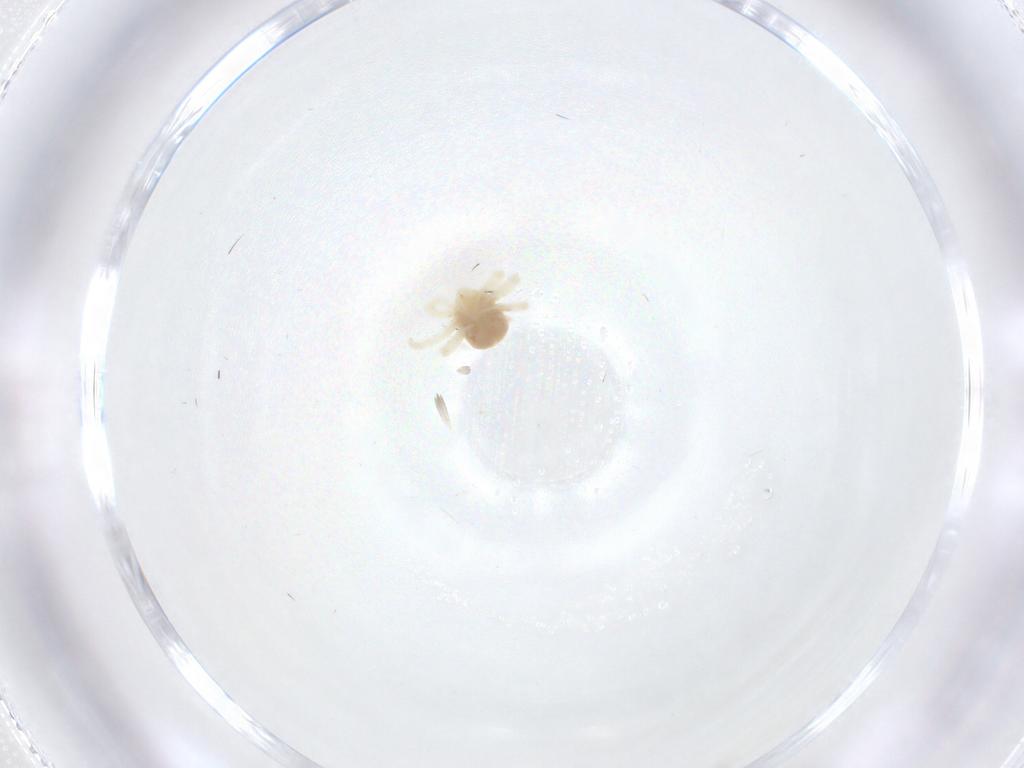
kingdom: Animalia
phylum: Arthropoda
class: Arachnida
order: Trombidiformes
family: Anystidae
